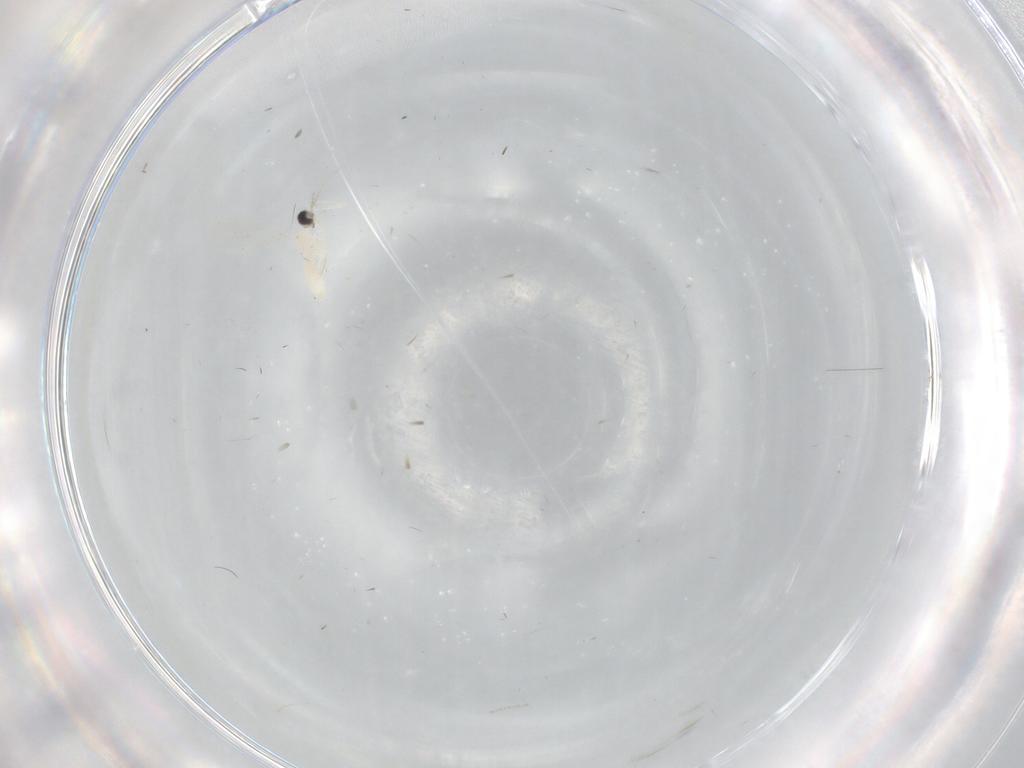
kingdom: Animalia
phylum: Arthropoda
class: Insecta
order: Diptera
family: Cecidomyiidae
